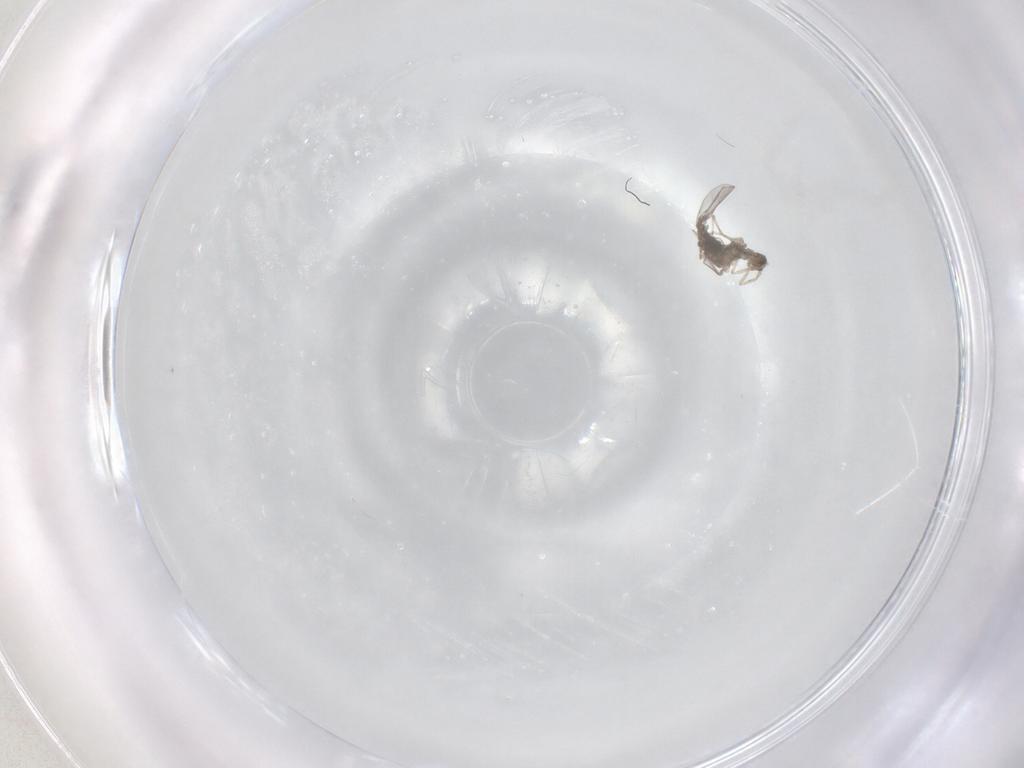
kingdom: Animalia
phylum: Arthropoda
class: Insecta
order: Diptera
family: Cecidomyiidae
